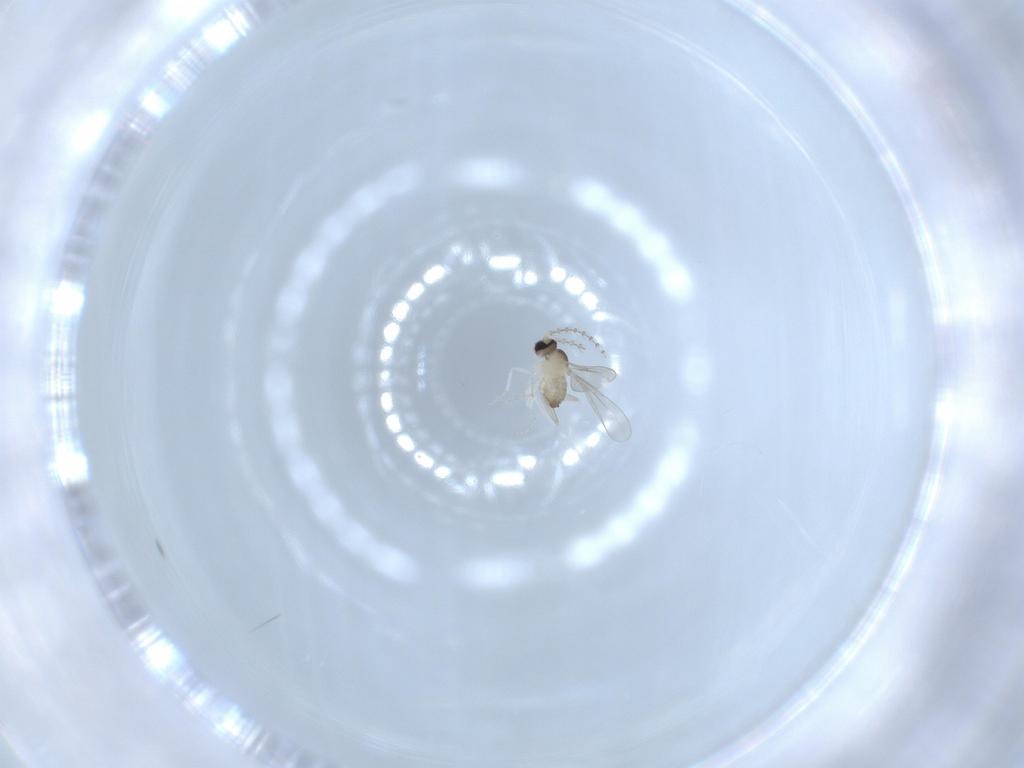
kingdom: Animalia
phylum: Arthropoda
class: Insecta
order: Diptera
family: Cecidomyiidae
